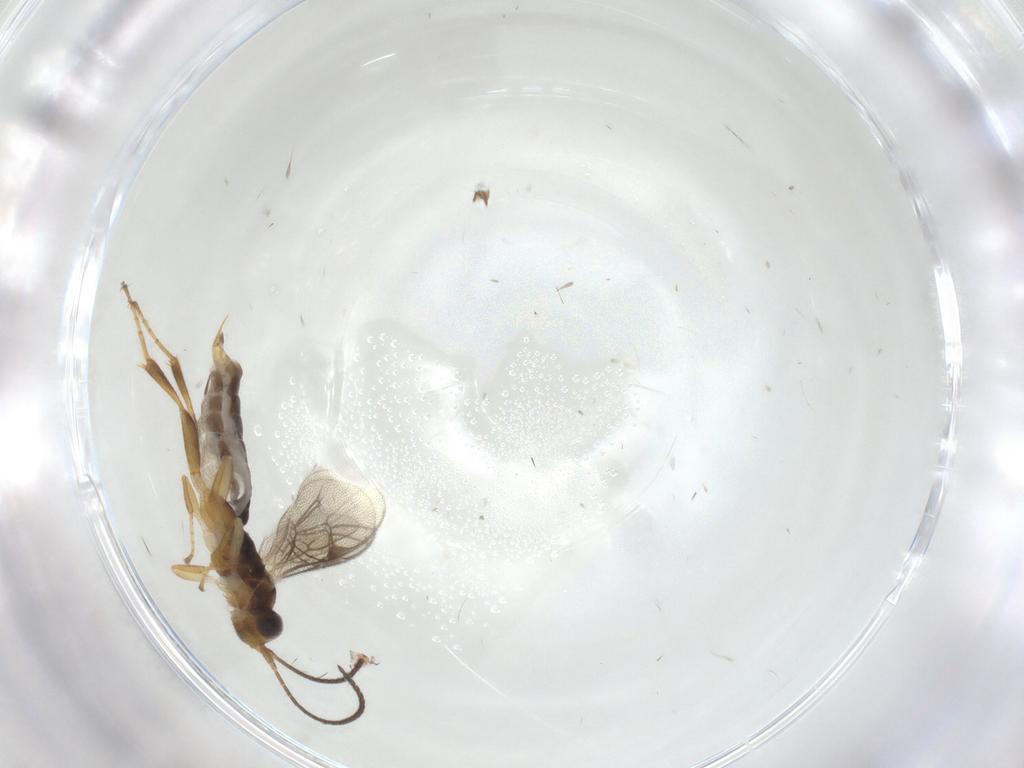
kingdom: Animalia
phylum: Arthropoda
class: Insecta
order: Hymenoptera
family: Ichneumonidae
